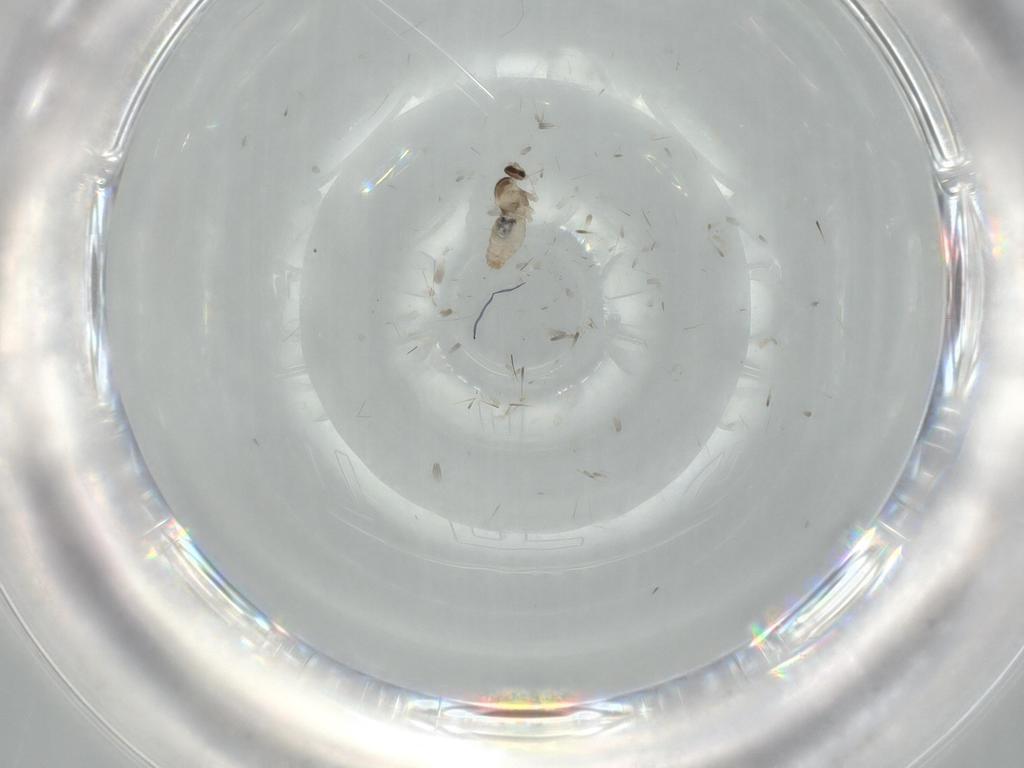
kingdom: Animalia
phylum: Arthropoda
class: Insecta
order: Diptera
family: Cecidomyiidae
